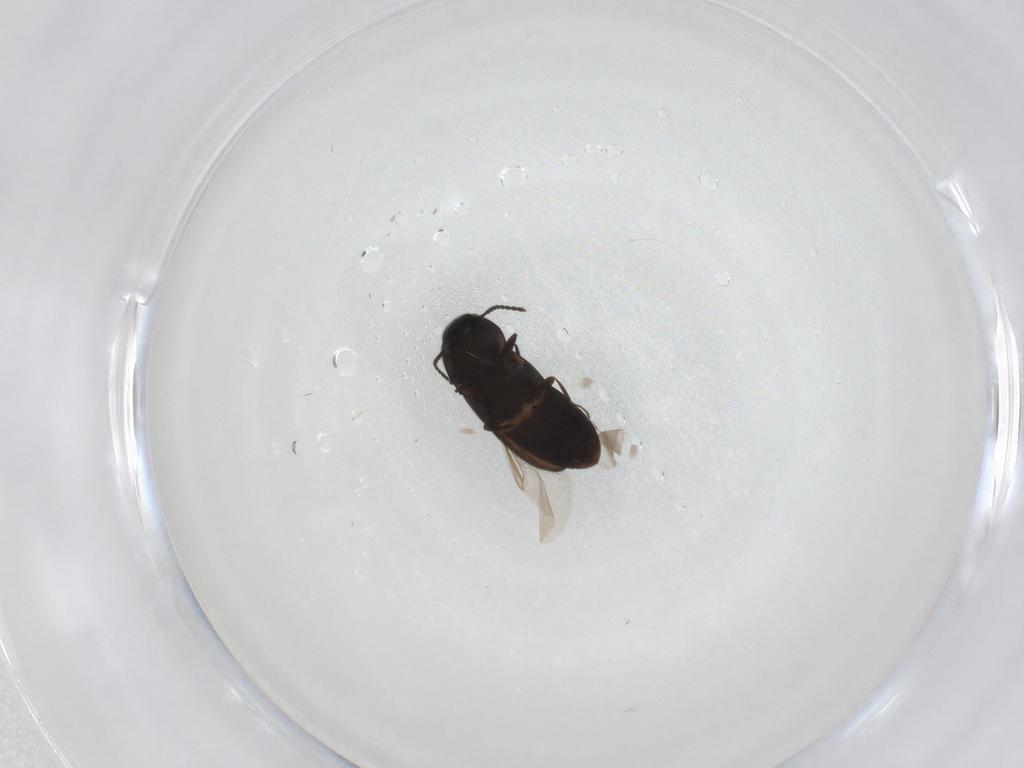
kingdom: Animalia
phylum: Arthropoda
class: Insecta
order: Coleoptera
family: Elateridae
